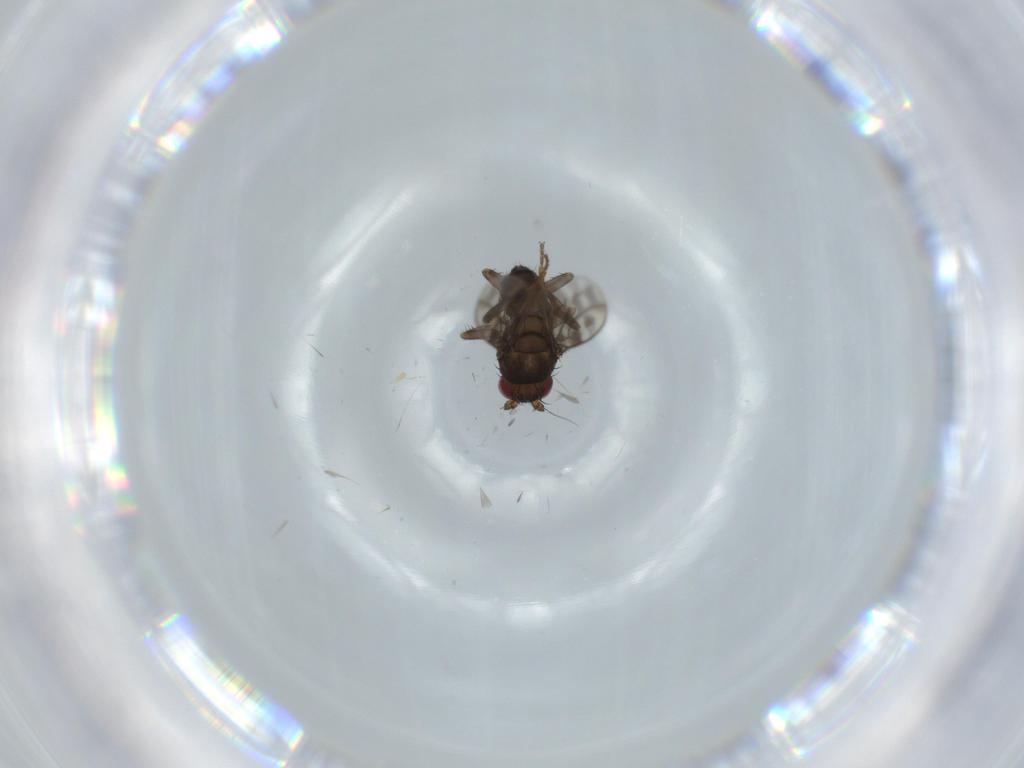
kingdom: Animalia
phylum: Arthropoda
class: Insecta
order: Diptera
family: Sphaeroceridae
